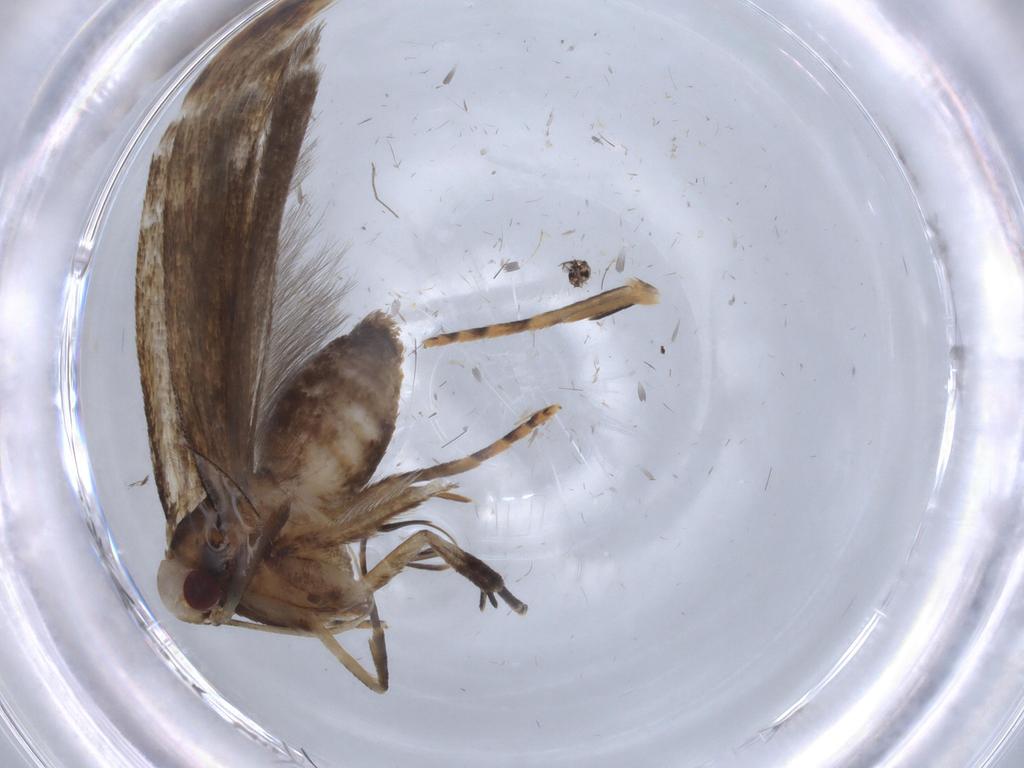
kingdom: Animalia
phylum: Arthropoda
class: Insecta
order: Lepidoptera
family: Gelechiidae
